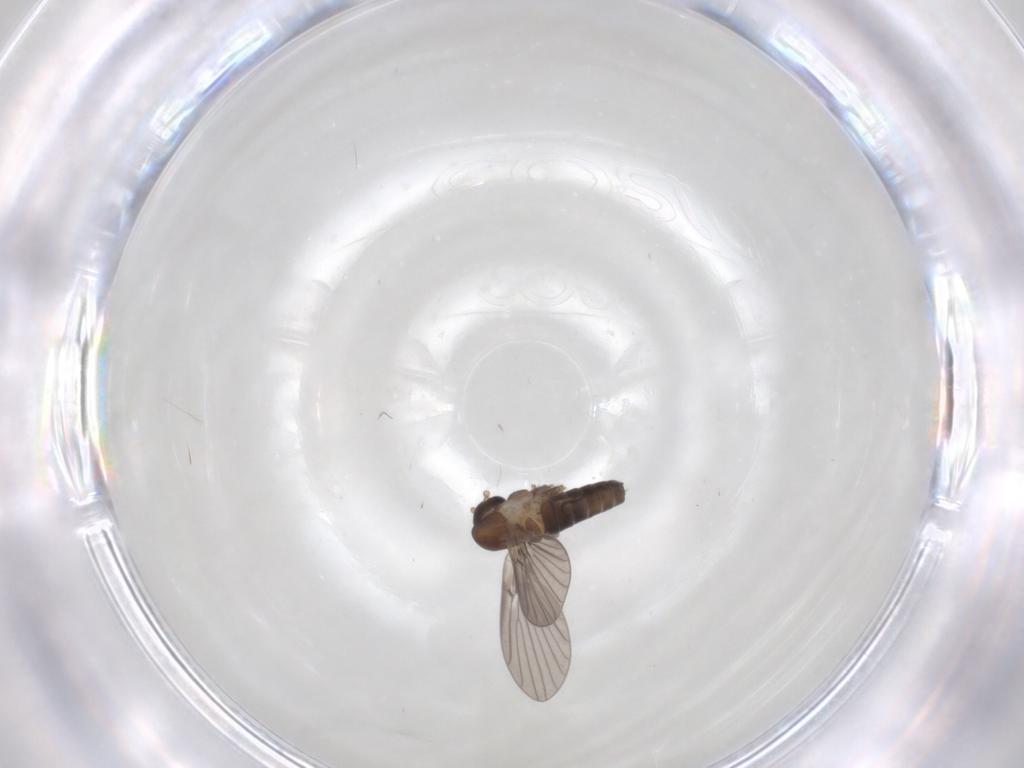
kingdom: Animalia
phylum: Arthropoda
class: Insecta
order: Diptera
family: Psychodidae
